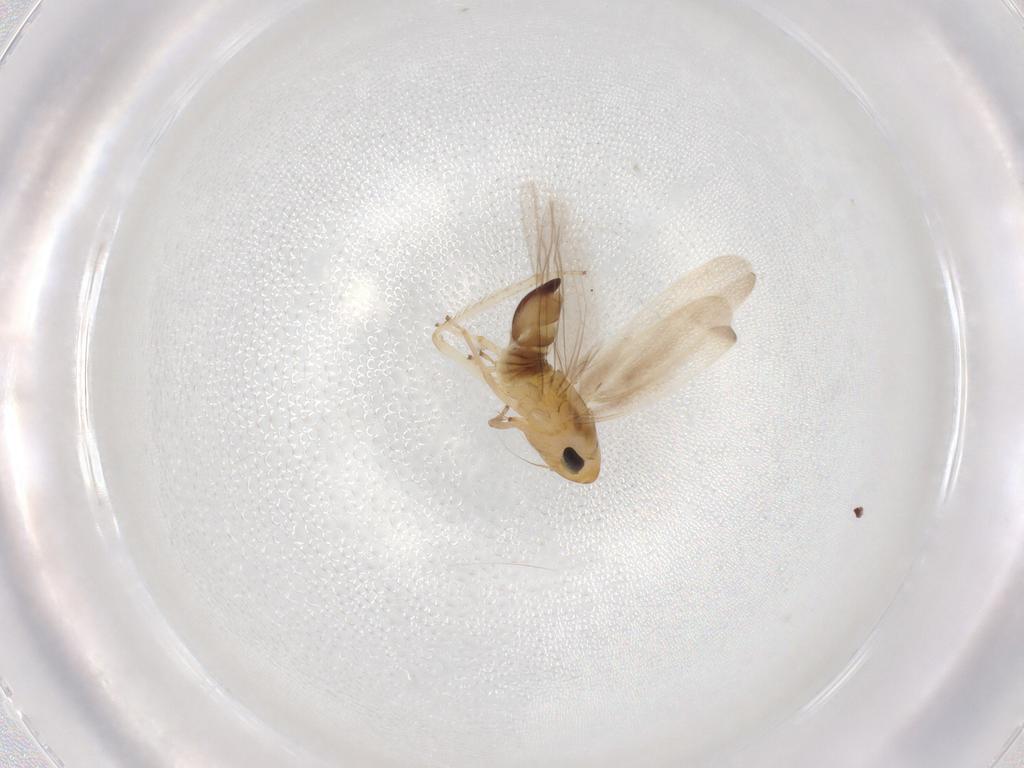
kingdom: Animalia
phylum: Arthropoda
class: Insecta
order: Hemiptera
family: Cicadellidae
